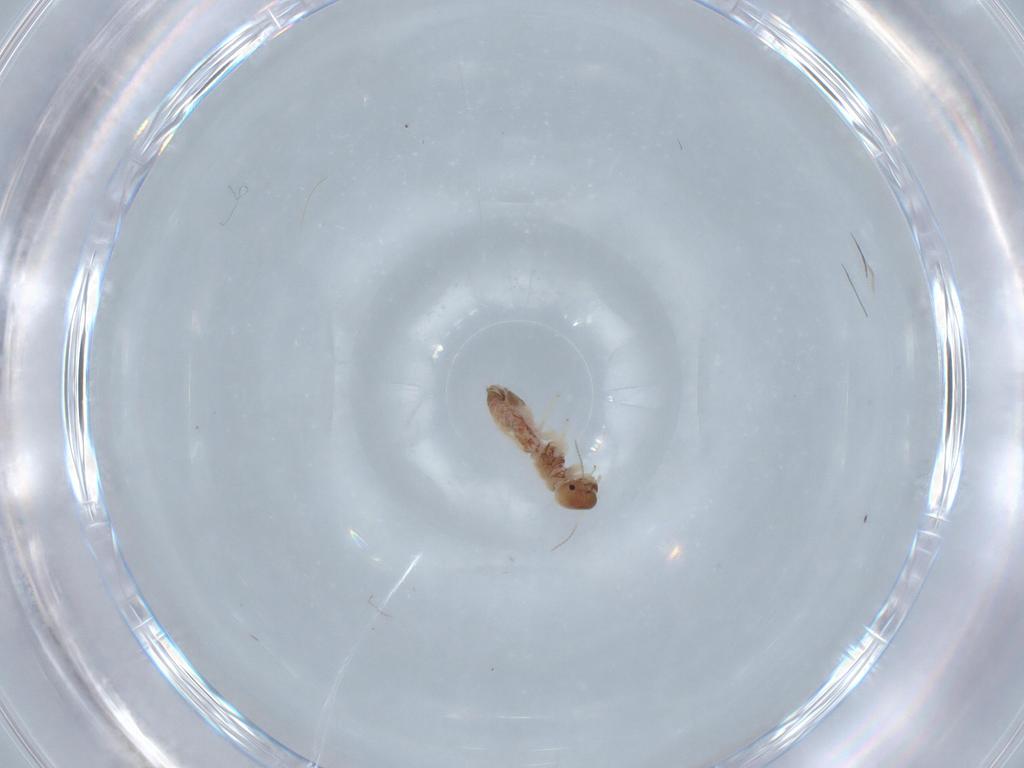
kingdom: Animalia
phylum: Arthropoda
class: Insecta
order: Psocodea
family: Archipsocidae
